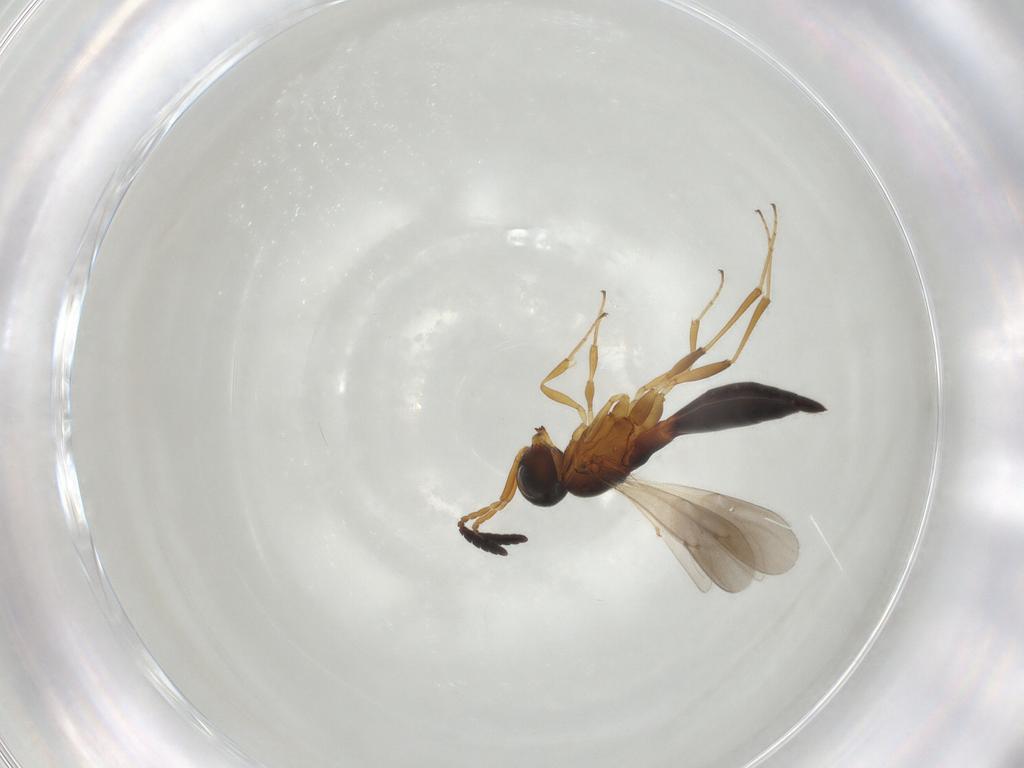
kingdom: Animalia
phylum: Arthropoda
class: Insecta
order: Hymenoptera
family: Scelionidae
